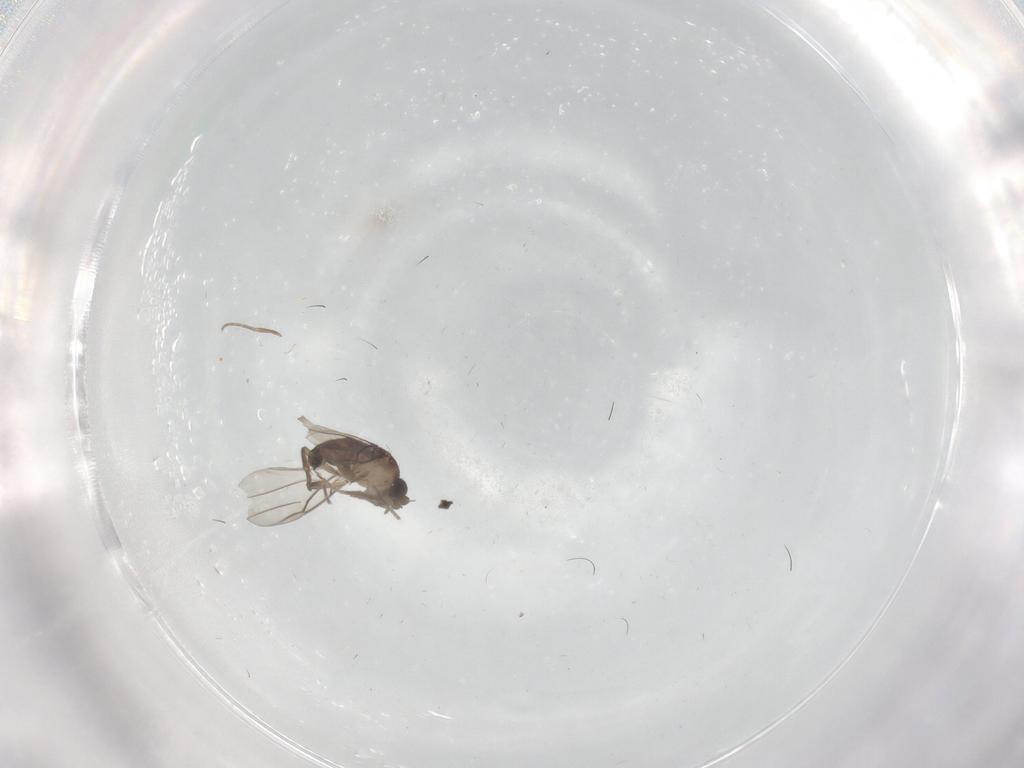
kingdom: Animalia
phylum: Arthropoda
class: Insecta
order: Diptera
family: Phoridae
